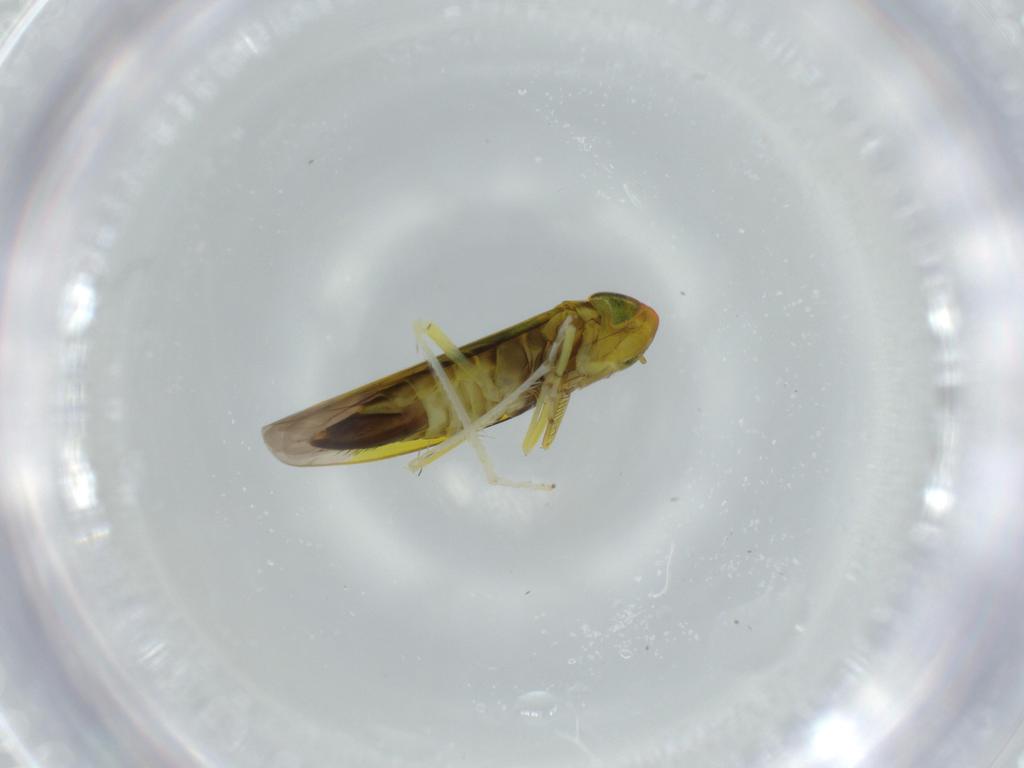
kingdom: Animalia
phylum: Arthropoda
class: Insecta
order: Hemiptera
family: Cicadellidae
